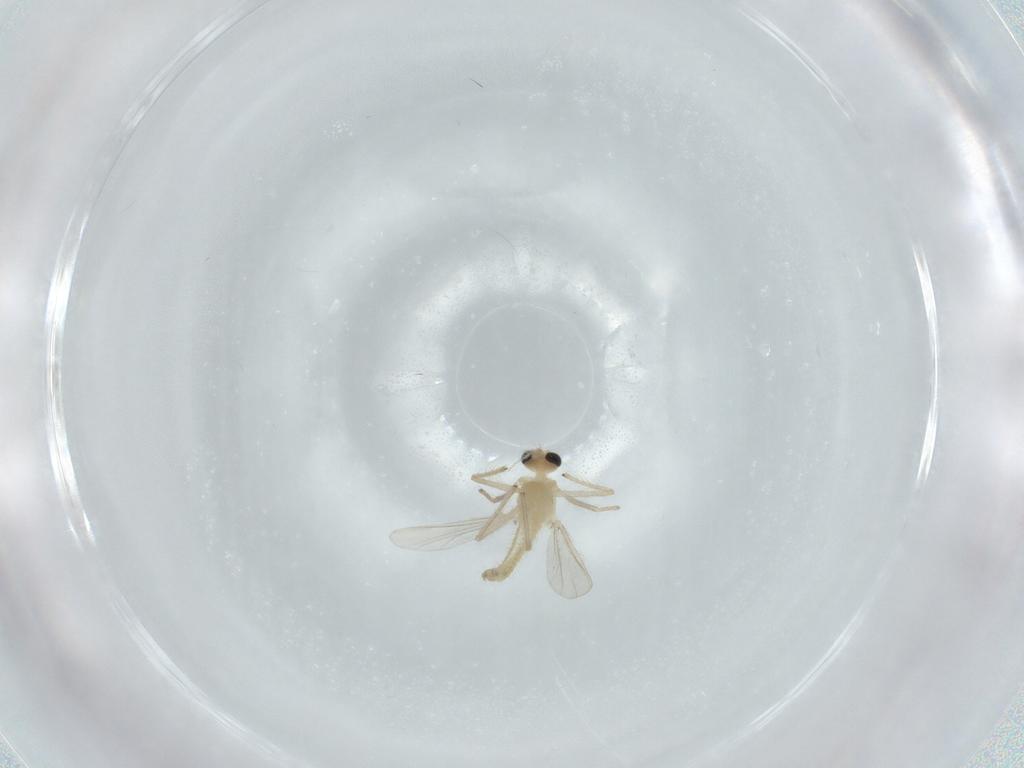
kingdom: Animalia
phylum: Arthropoda
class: Insecta
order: Diptera
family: Chironomidae
